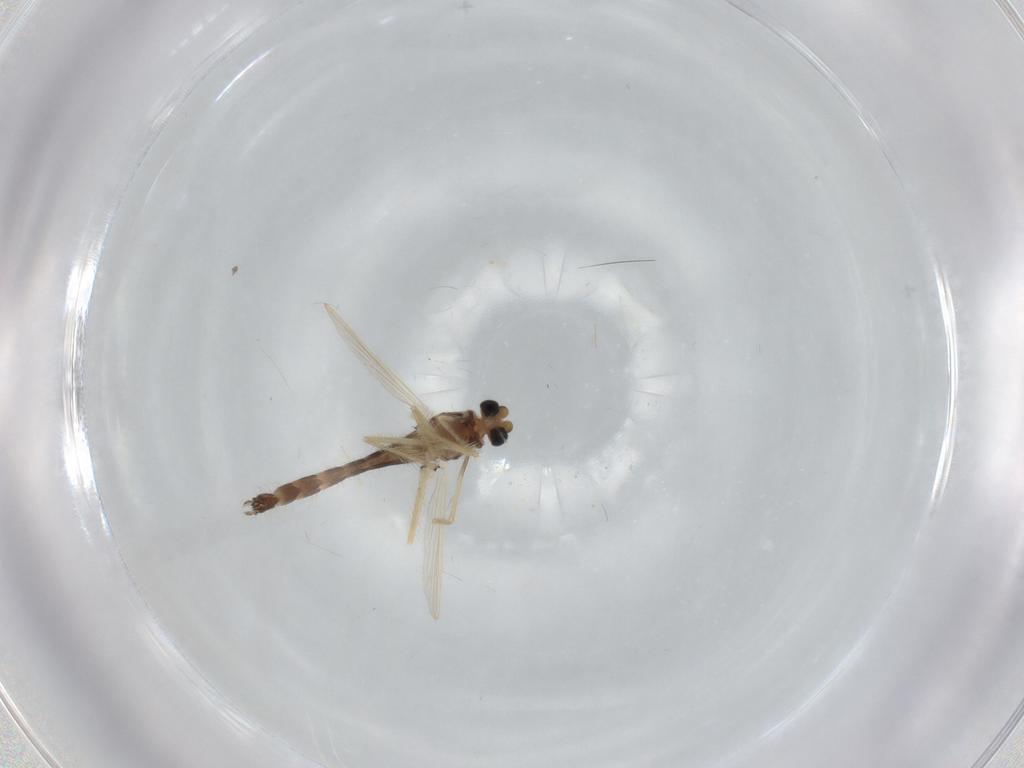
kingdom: Animalia
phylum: Arthropoda
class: Insecta
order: Diptera
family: Chironomidae
